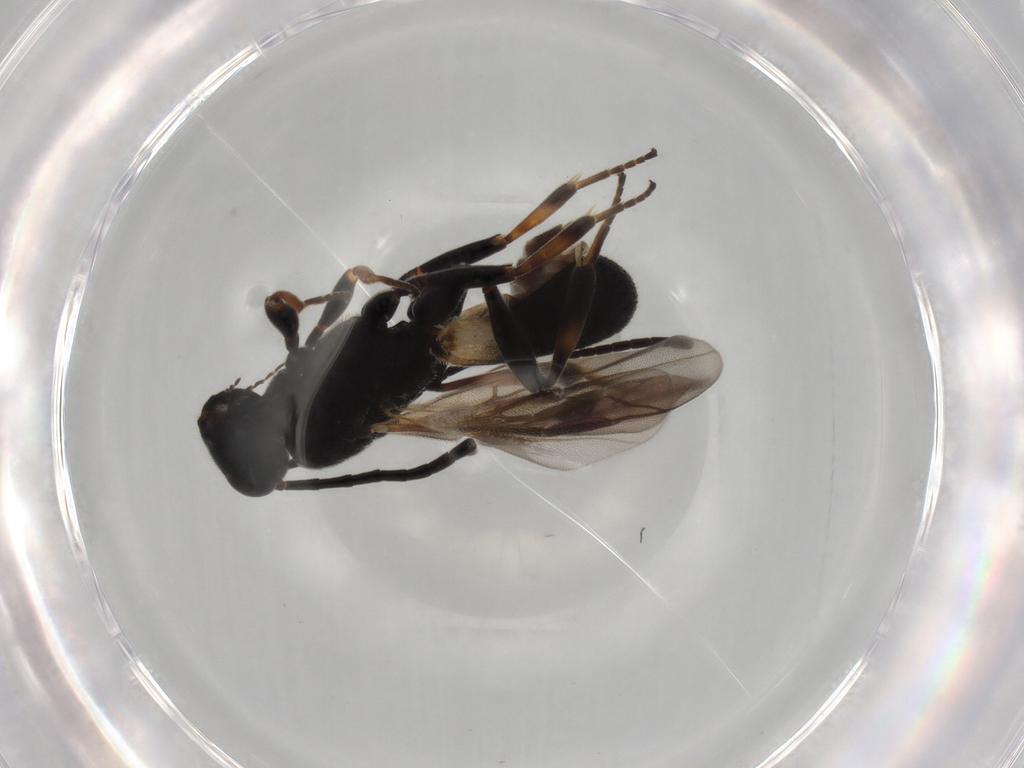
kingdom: Animalia
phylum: Arthropoda
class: Insecta
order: Hymenoptera
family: Braconidae
